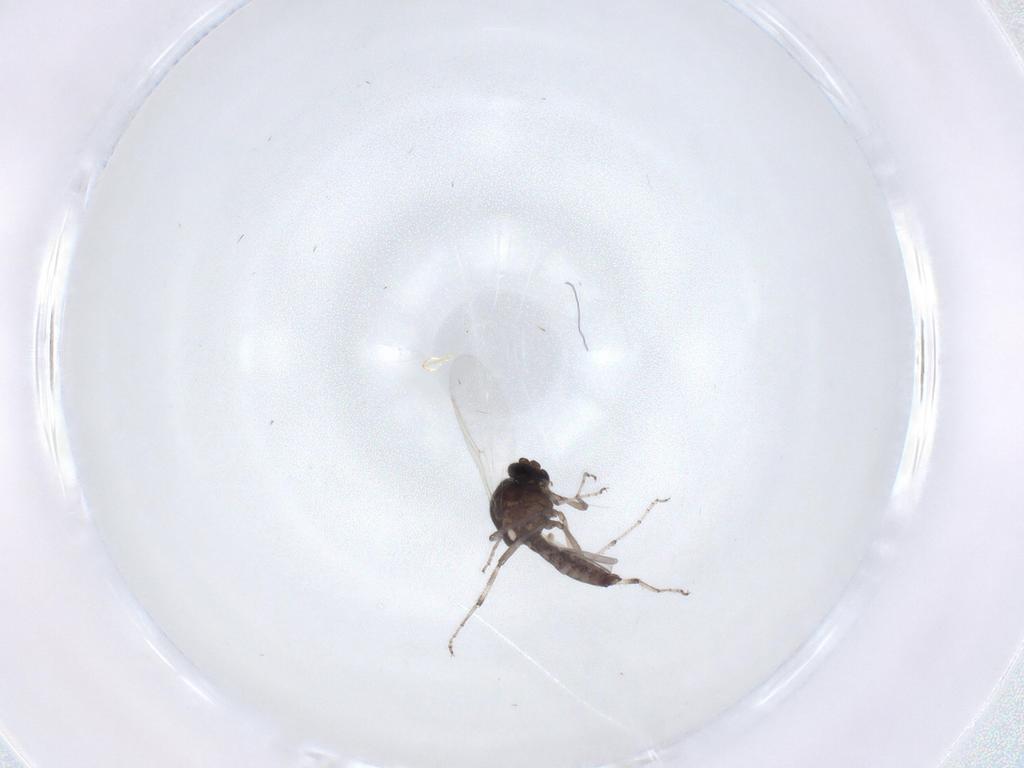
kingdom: Animalia
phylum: Arthropoda
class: Insecta
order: Diptera
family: Ceratopogonidae
